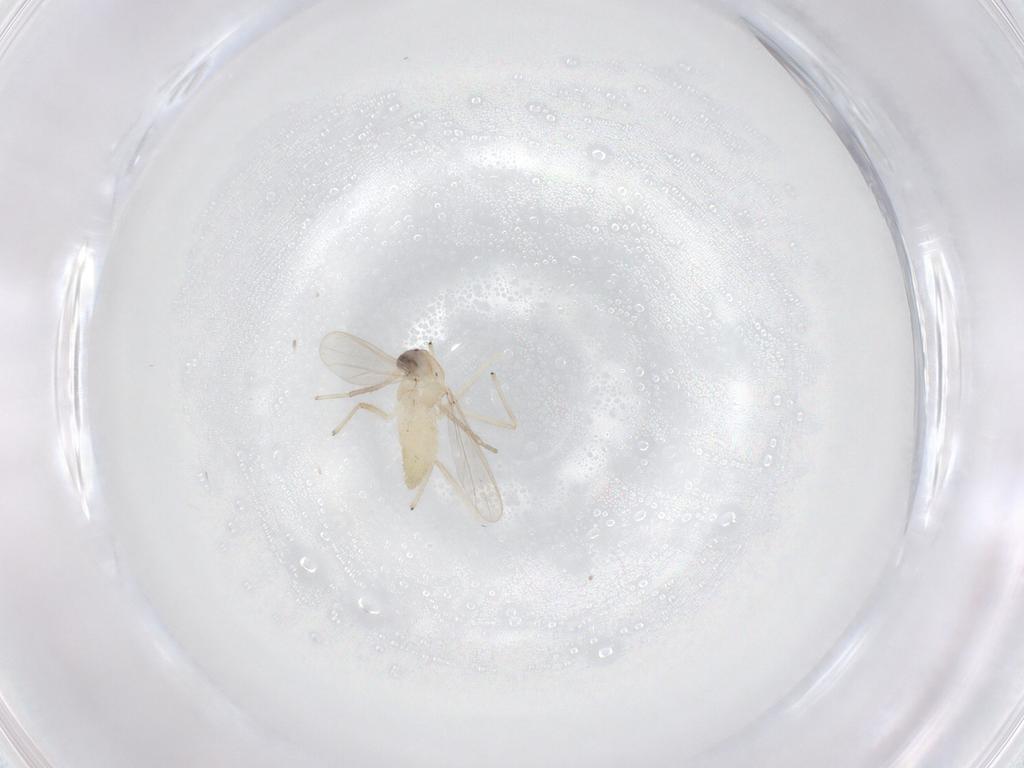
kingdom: Animalia
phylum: Arthropoda
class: Insecta
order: Diptera
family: Chironomidae
